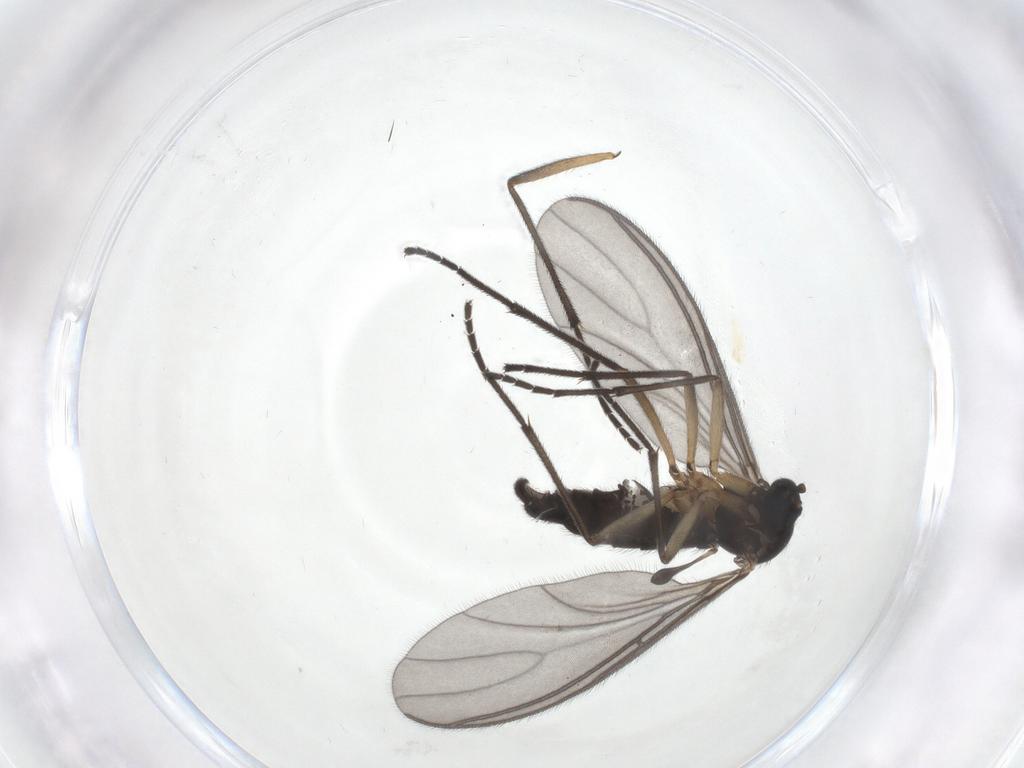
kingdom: Animalia
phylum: Arthropoda
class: Insecta
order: Diptera
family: Sciaridae
